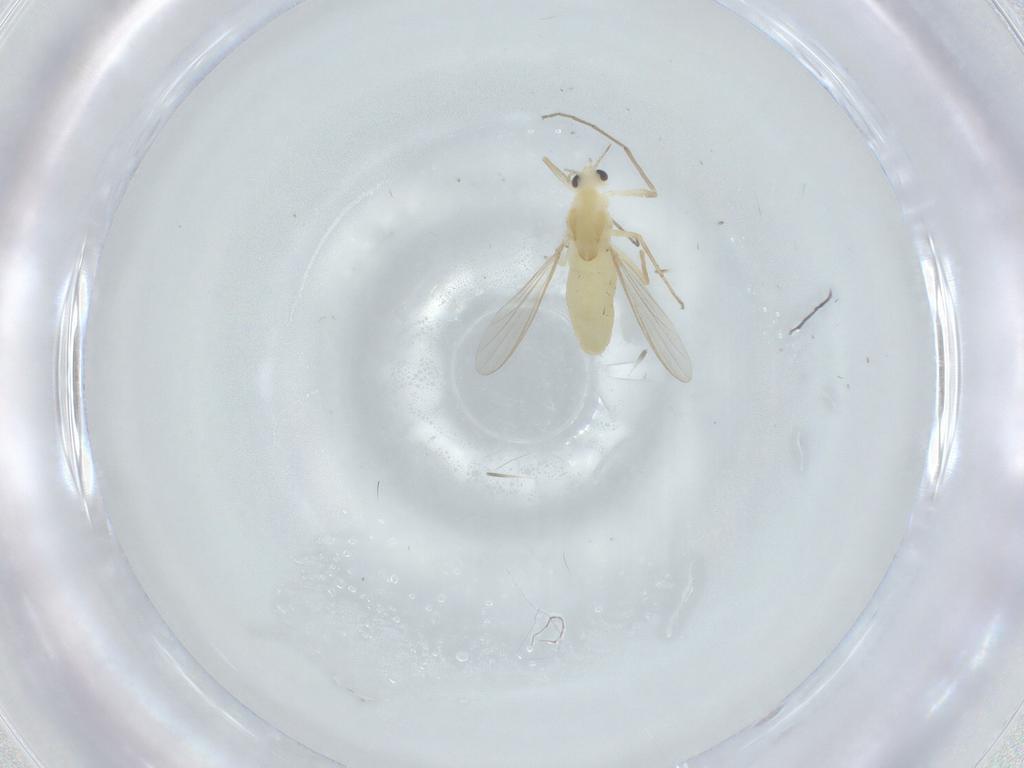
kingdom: Animalia
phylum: Arthropoda
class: Insecta
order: Diptera
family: Chironomidae
